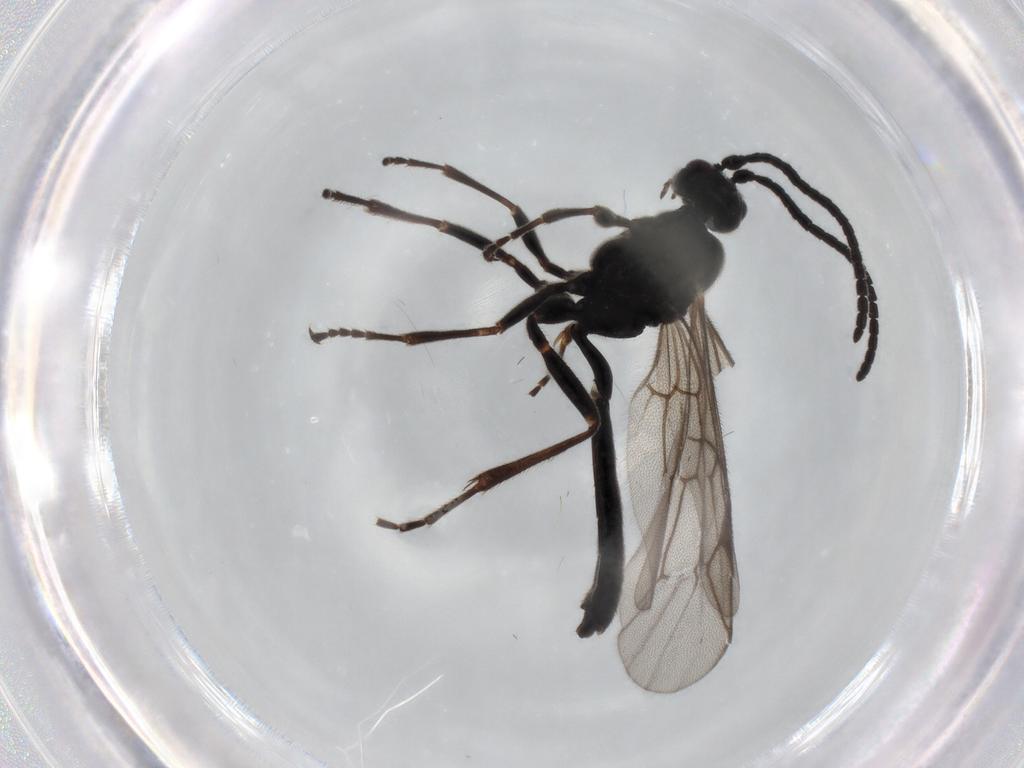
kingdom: Animalia
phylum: Arthropoda
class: Insecta
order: Hymenoptera
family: Ichneumonidae
